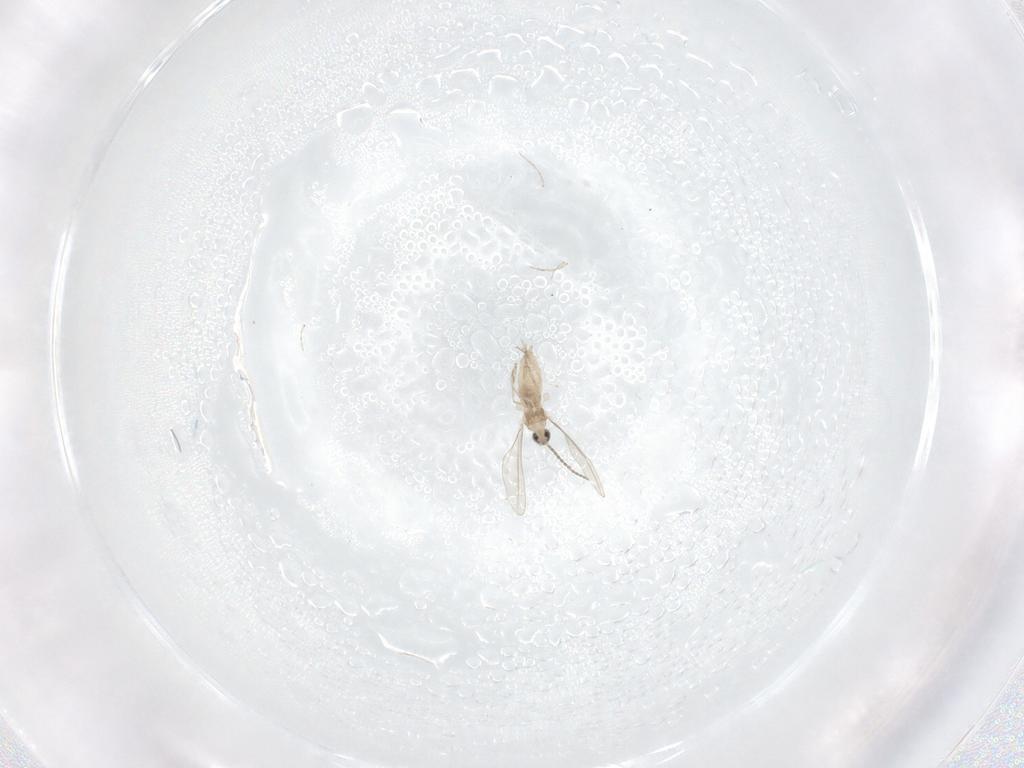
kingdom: Animalia
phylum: Arthropoda
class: Insecta
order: Diptera
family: Cecidomyiidae
